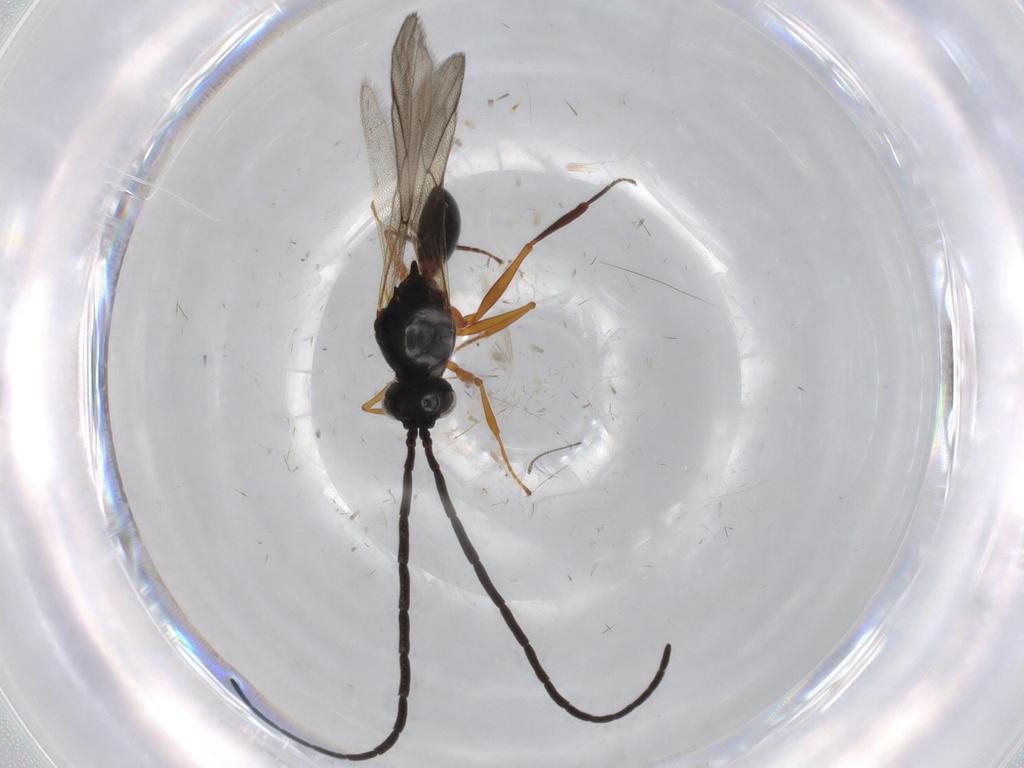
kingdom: Animalia
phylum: Arthropoda
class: Insecta
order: Hymenoptera
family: Figitidae
